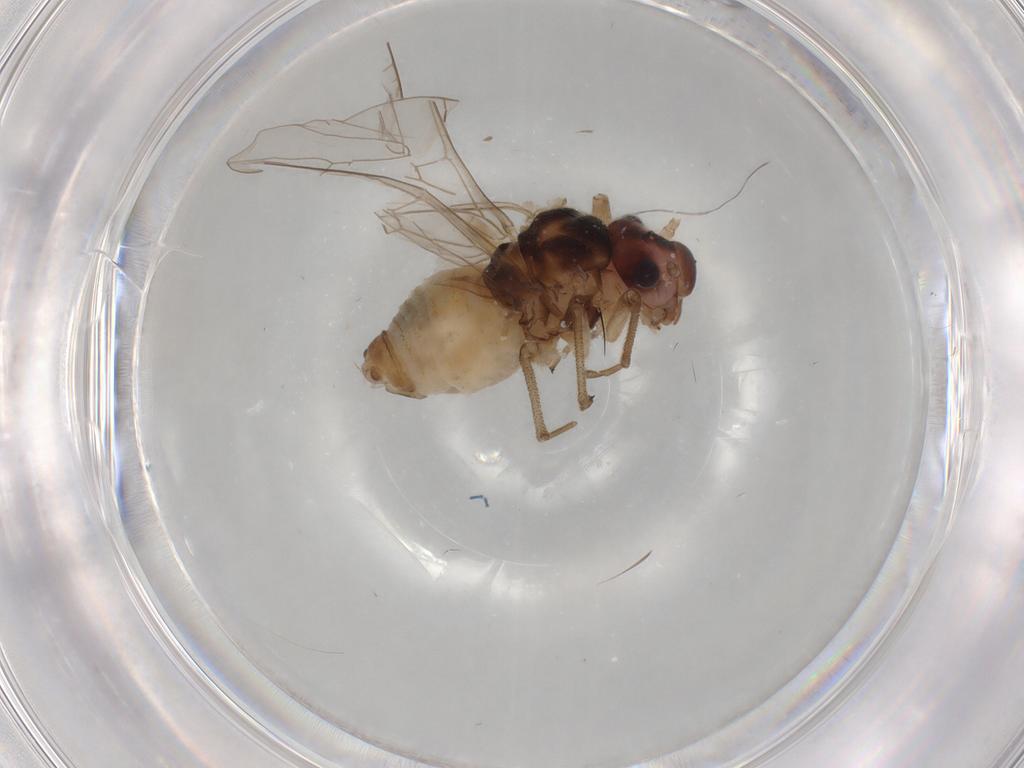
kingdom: Animalia
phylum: Arthropoda
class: Insecta
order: Psocodea
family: Stenopsocidae
